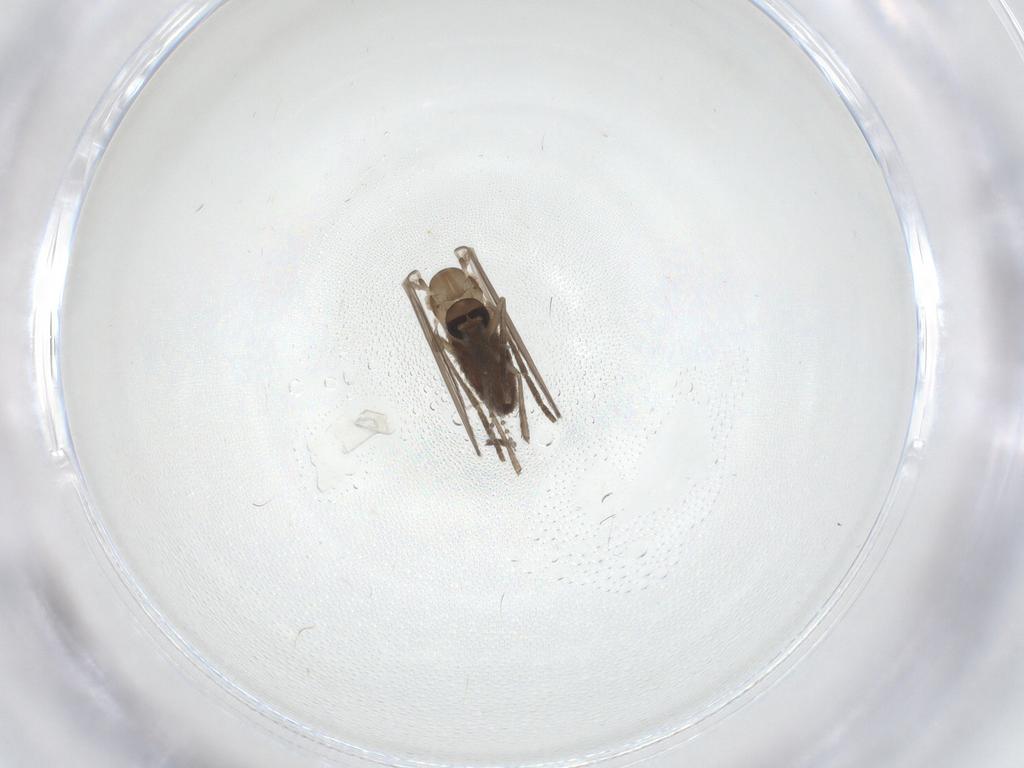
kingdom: Animalia
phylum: Arthropoda
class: Insecta
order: Diptera
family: Psychodidae
